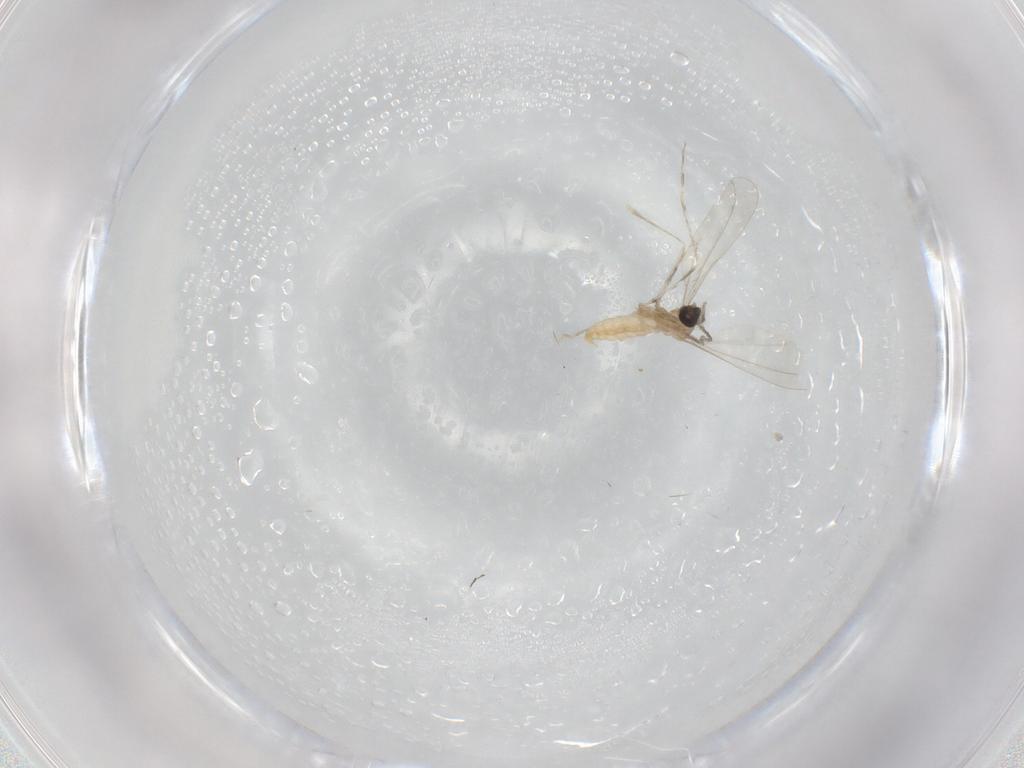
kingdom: Animalia
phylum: Arthropoda
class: Insecta
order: Diptera
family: Cecidomyiidae
